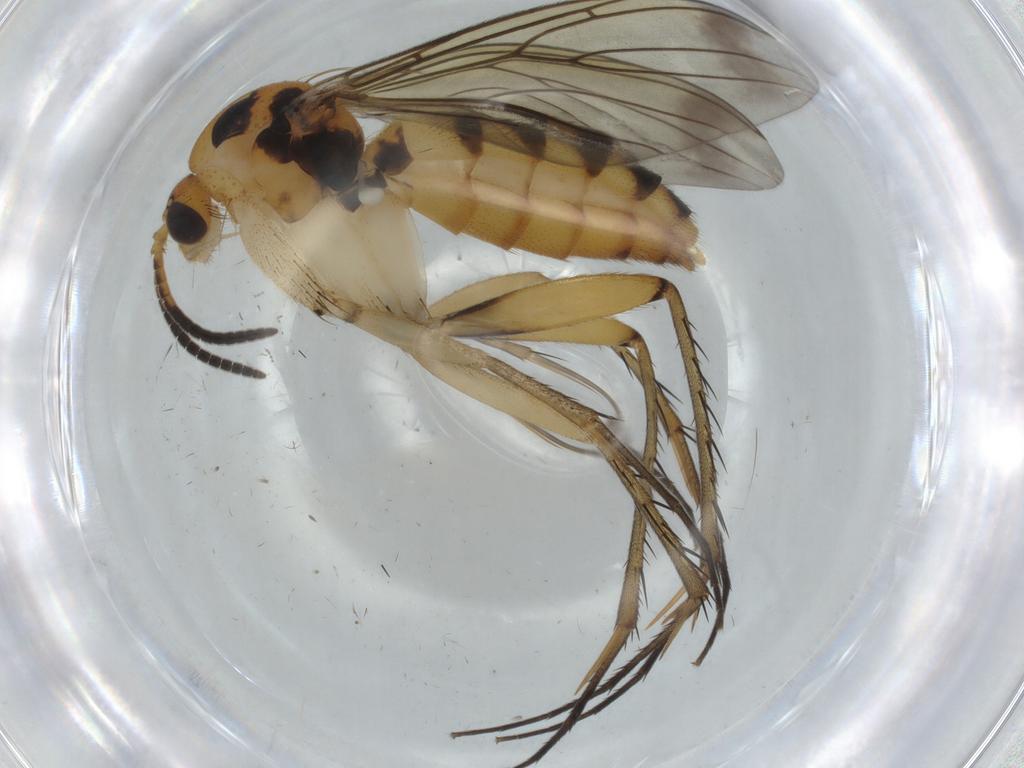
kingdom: Animalia
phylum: Arthropoda
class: Insecta
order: Diptera
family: Mycetophilidae
